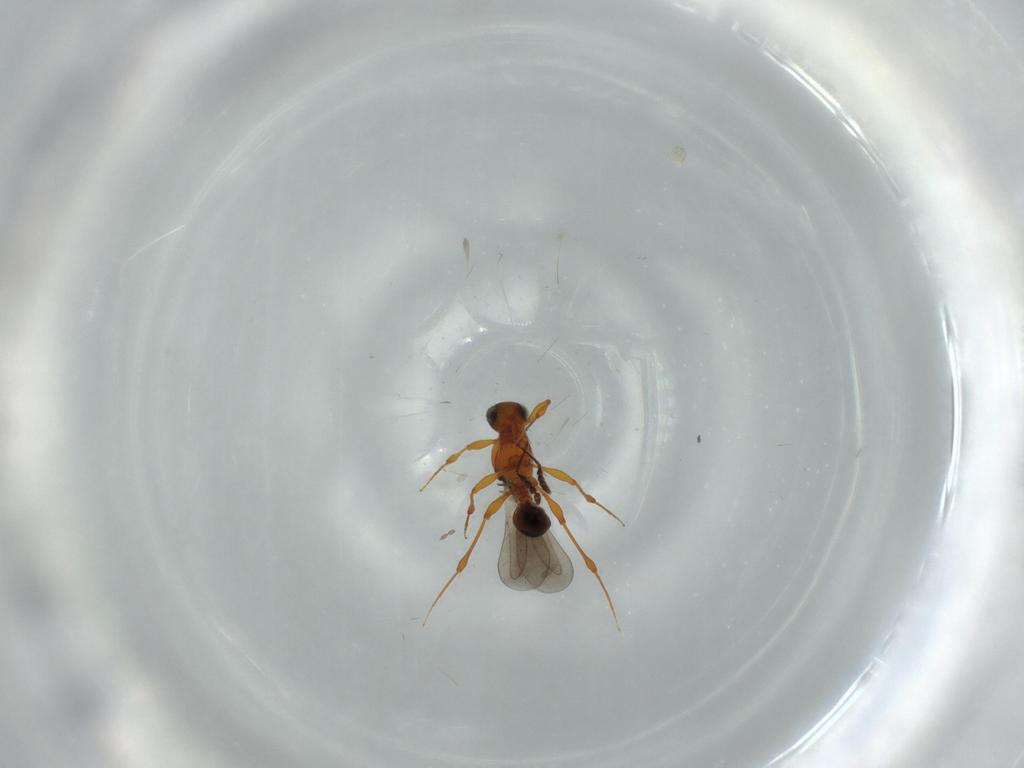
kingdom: Animalia
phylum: Arthropoda
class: Insecta
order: Hymenoptera
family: Platygastridae
